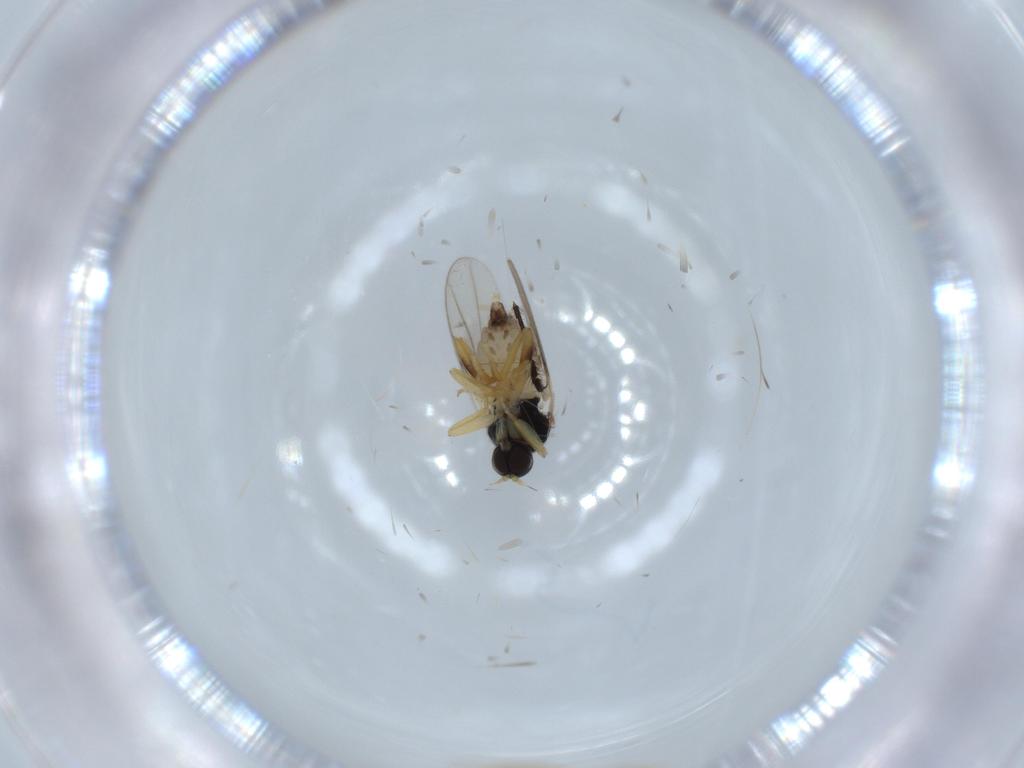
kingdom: Animalia
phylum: Arthropoda
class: Insecta
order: Diptera
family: Hybotidae
